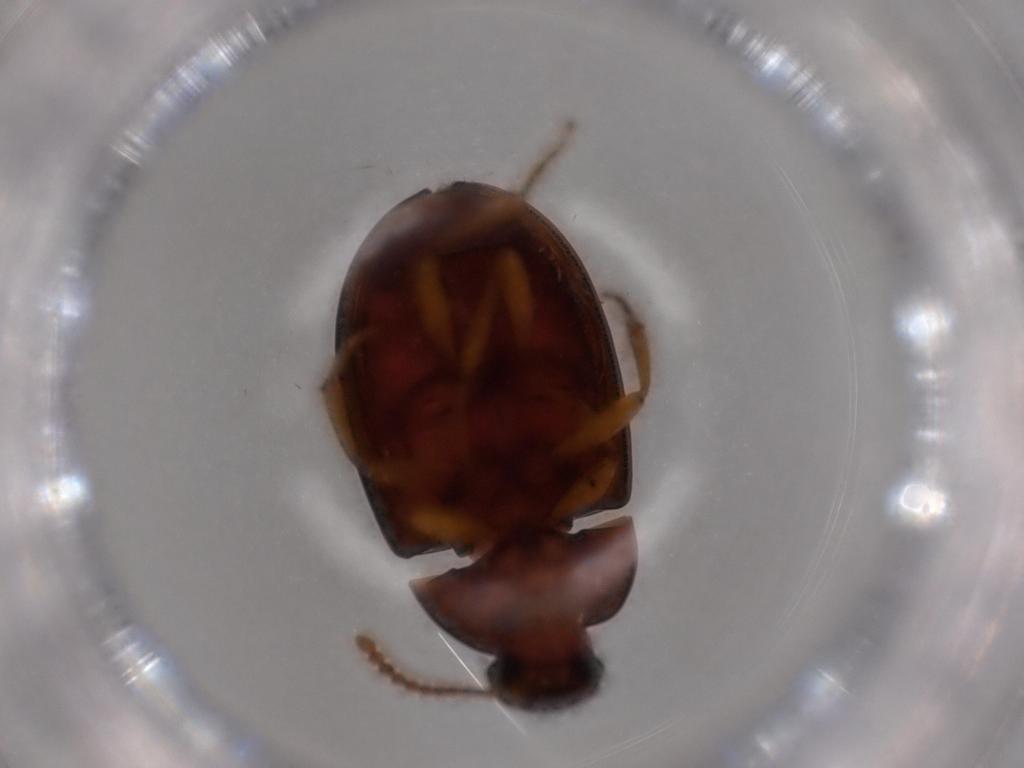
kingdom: Animalia
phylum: Arthropoda
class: Insecta
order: Coleoptera
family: Tenebrionidae
